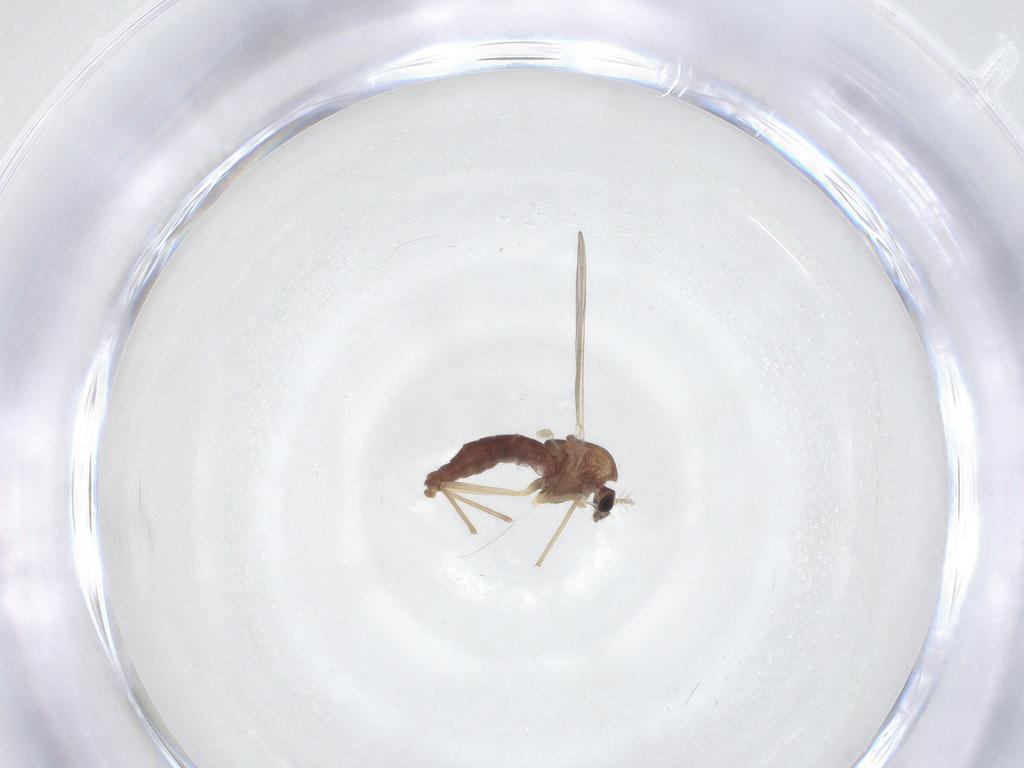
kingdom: Animalia
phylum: Arthropoda
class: Insecta
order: Diptera
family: Chironomidae
